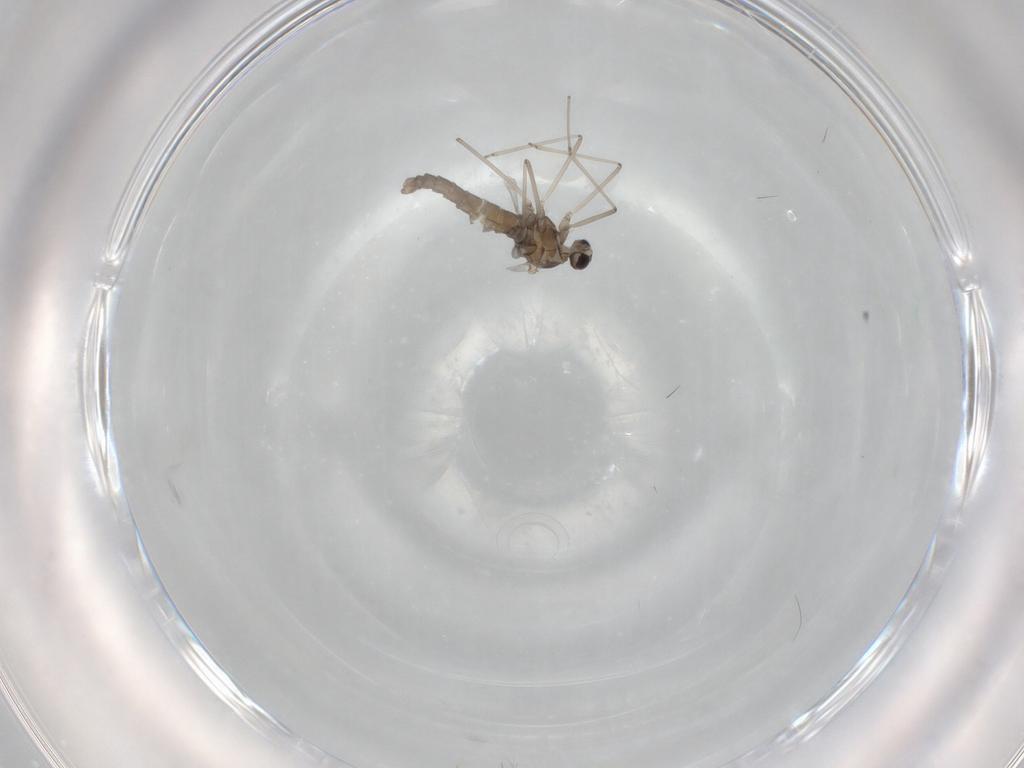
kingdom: Animalia
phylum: Arthropoda
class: Insecta
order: Diptera
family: Cecidomyiidae
